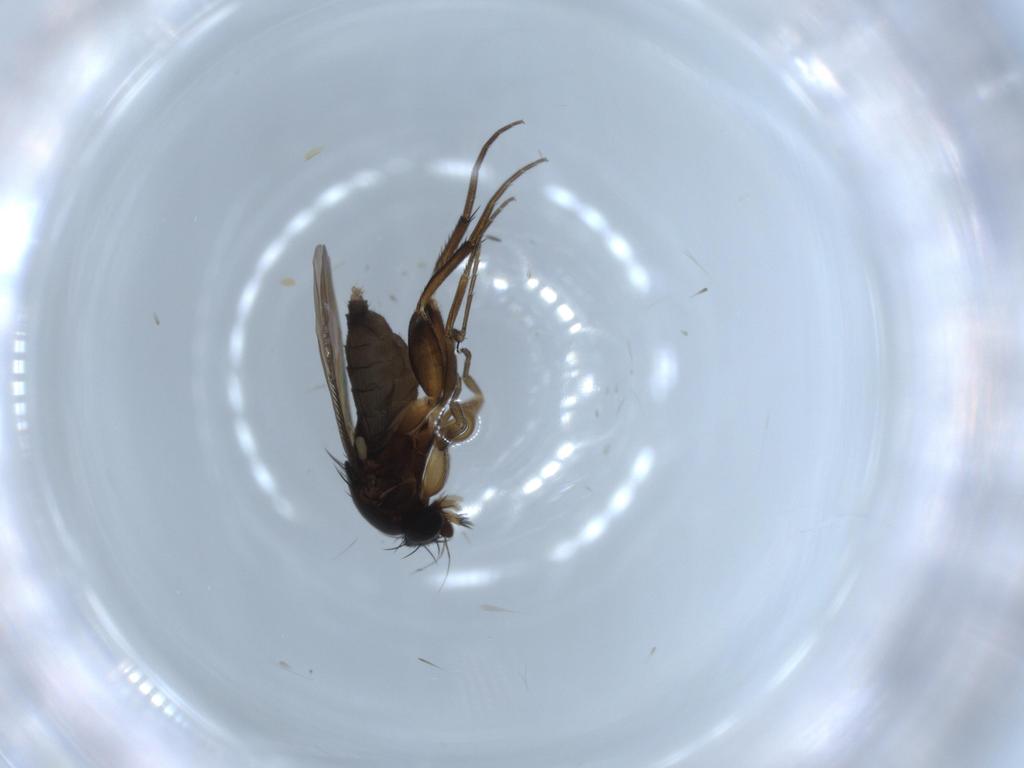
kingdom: Animalia
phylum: Arthropoda
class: Insecta
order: Diptera
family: Phoridae
